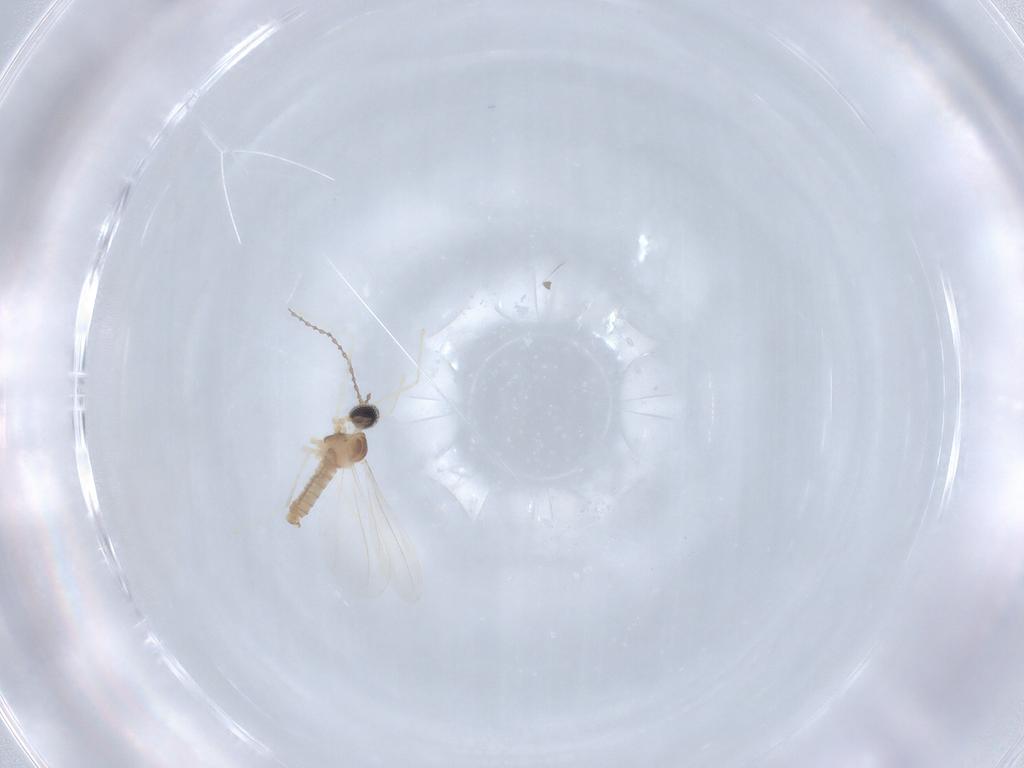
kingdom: Animalia
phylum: Arthropoda
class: Insecta
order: Diptera
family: Cecidomyiidae
